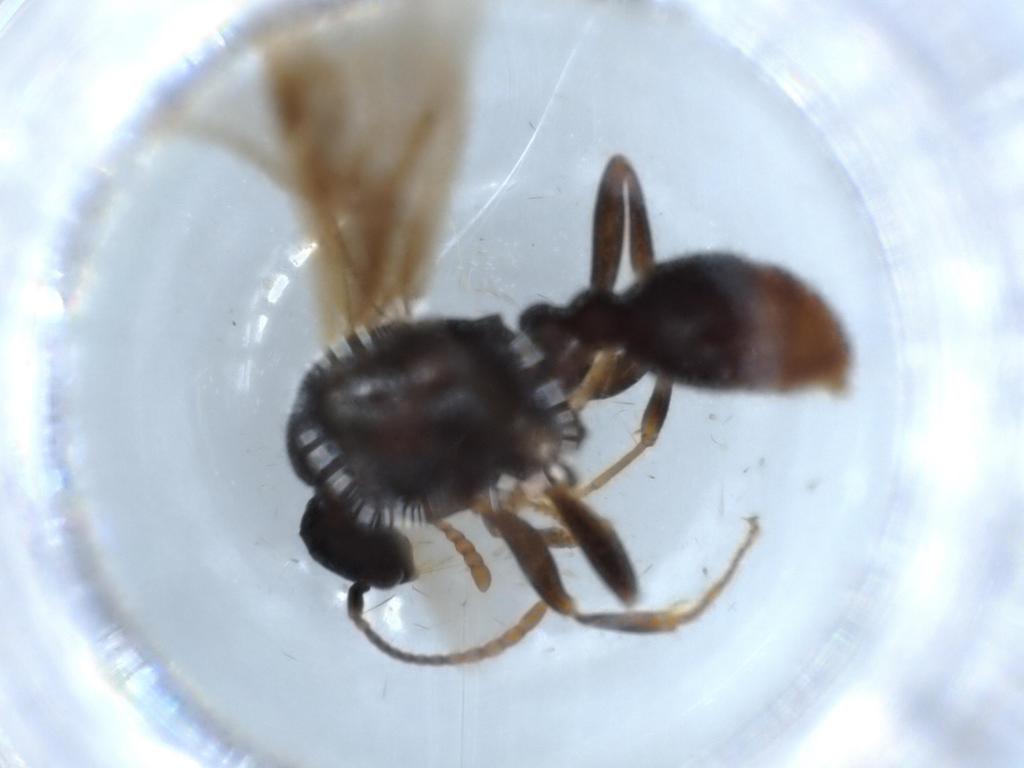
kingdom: Animalia
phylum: Arthropoda
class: Insecta
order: Hymenoptera
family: Formicidae
